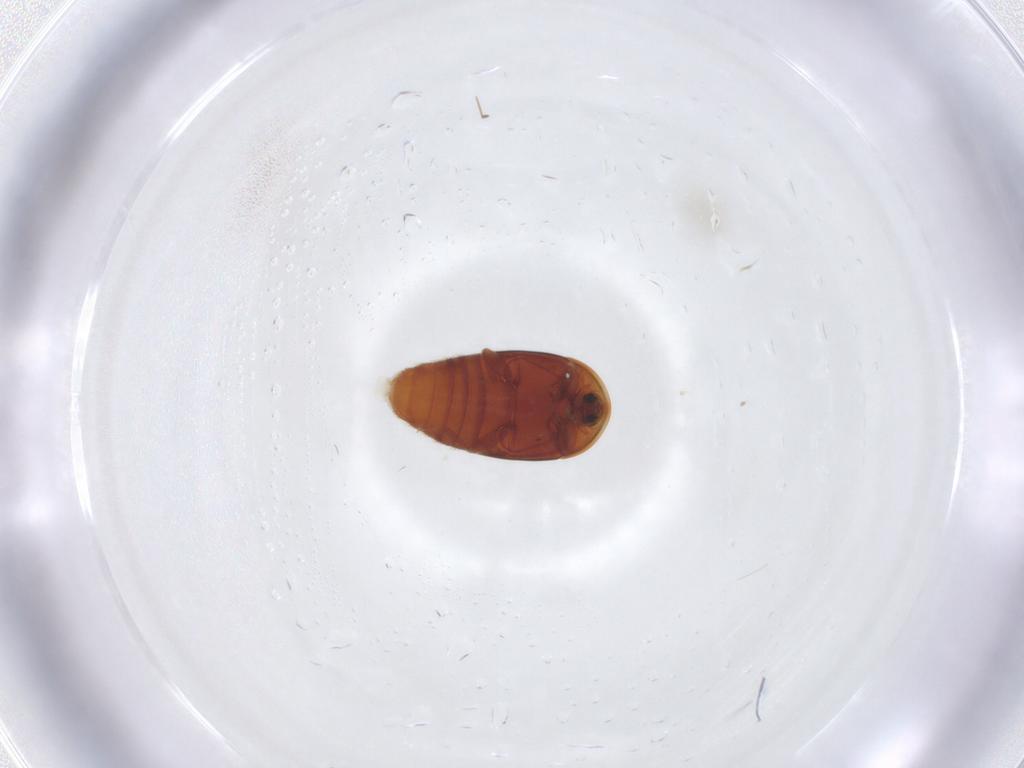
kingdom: Animalia
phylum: Arthropoda
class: Insecta
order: Coleoptera
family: Corylophidae
